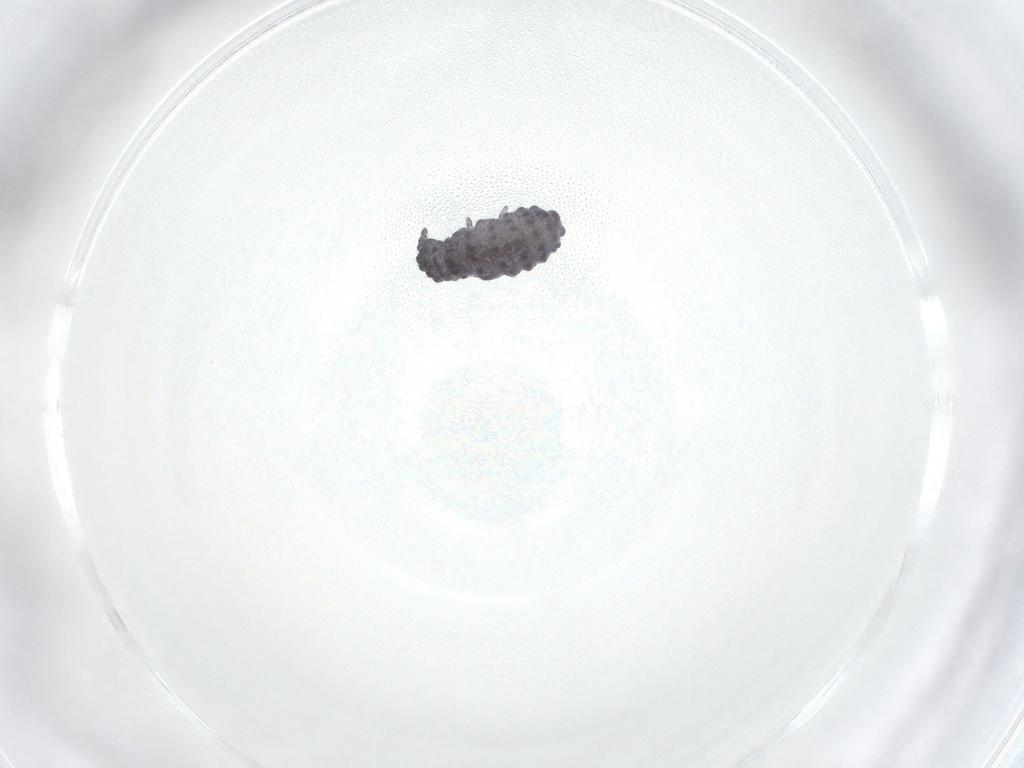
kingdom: Animalia
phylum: Arthropoda
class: Collembola
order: Poduromorpha
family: Neanuridae
